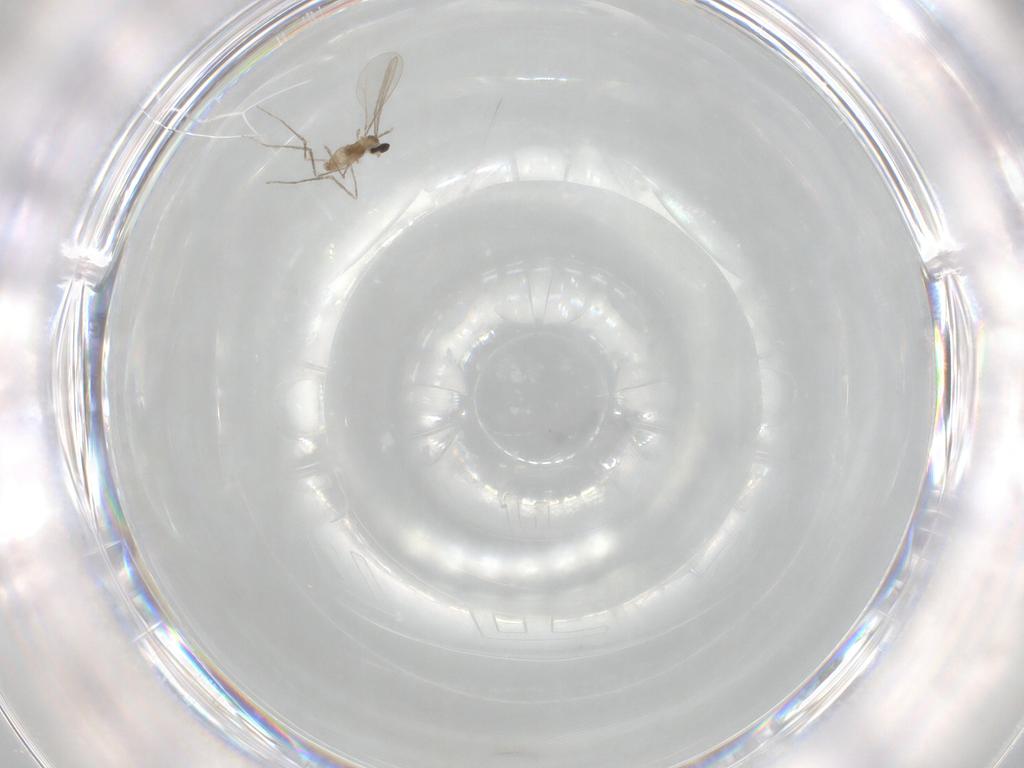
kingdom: Animalia
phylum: Arthropoda
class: Insecta
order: Diptera
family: Cecidomyiidae
